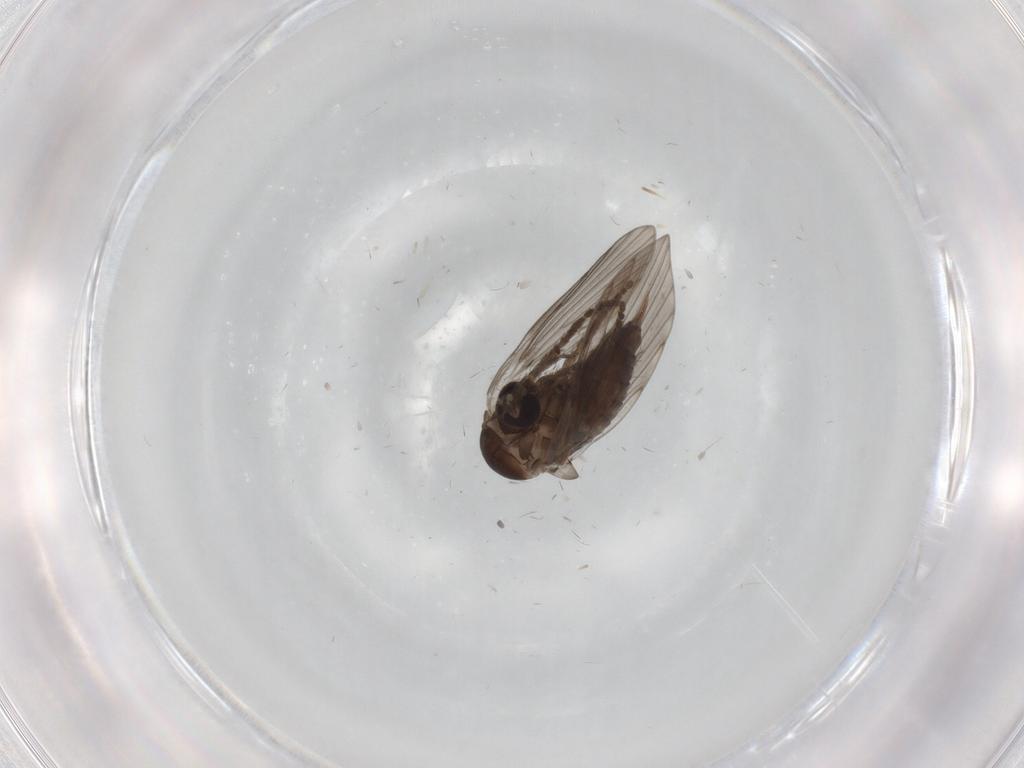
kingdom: Animalia
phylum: Arthropoda
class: Insecta
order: Diptera
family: Psychodidae
